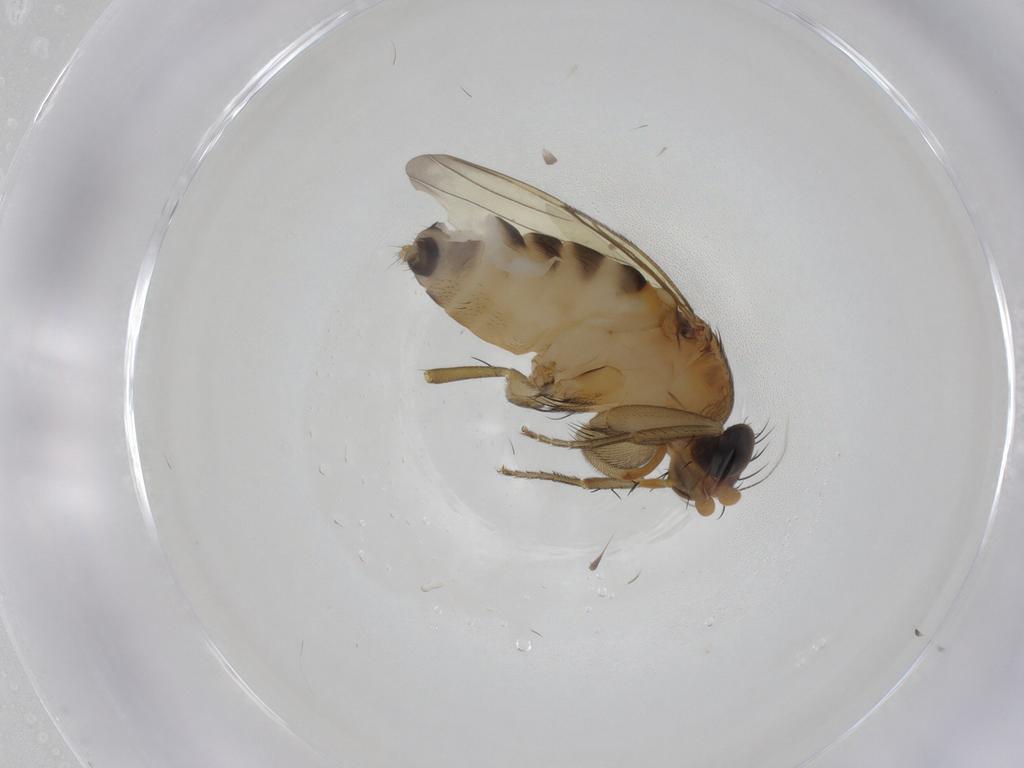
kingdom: Animalia
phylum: Arthropoda
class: Insecta
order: Diptera
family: Phoridae
